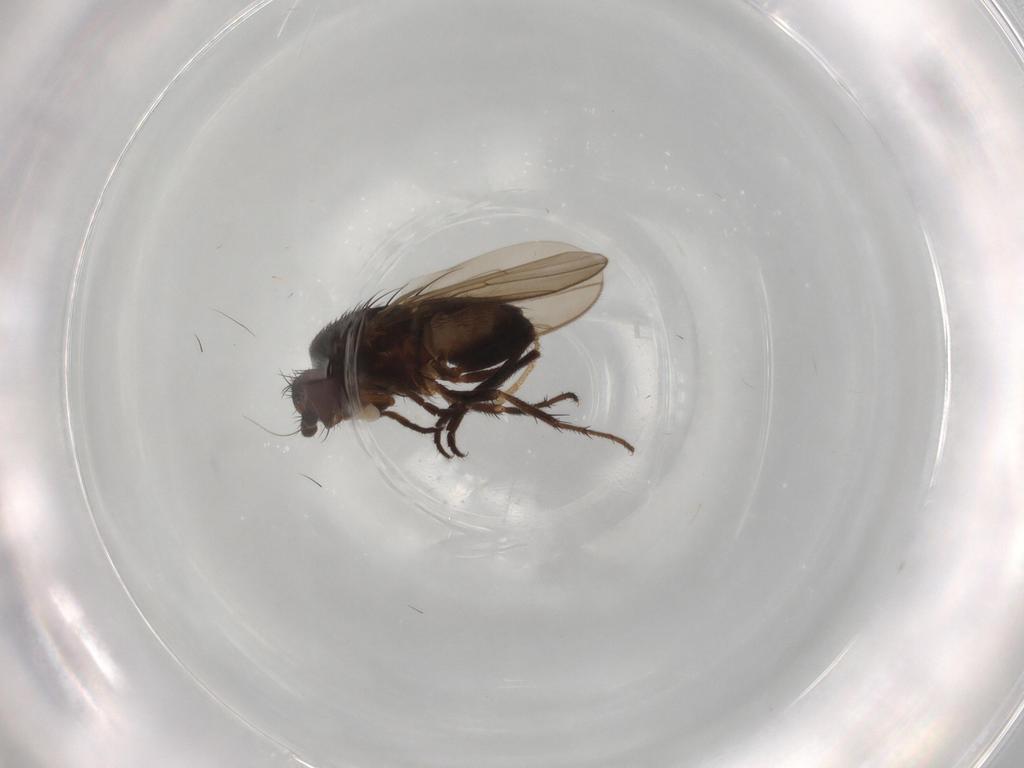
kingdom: Animalia
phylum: Arthropoda
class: Insecta
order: Diptera
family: Sphaeroceridae
